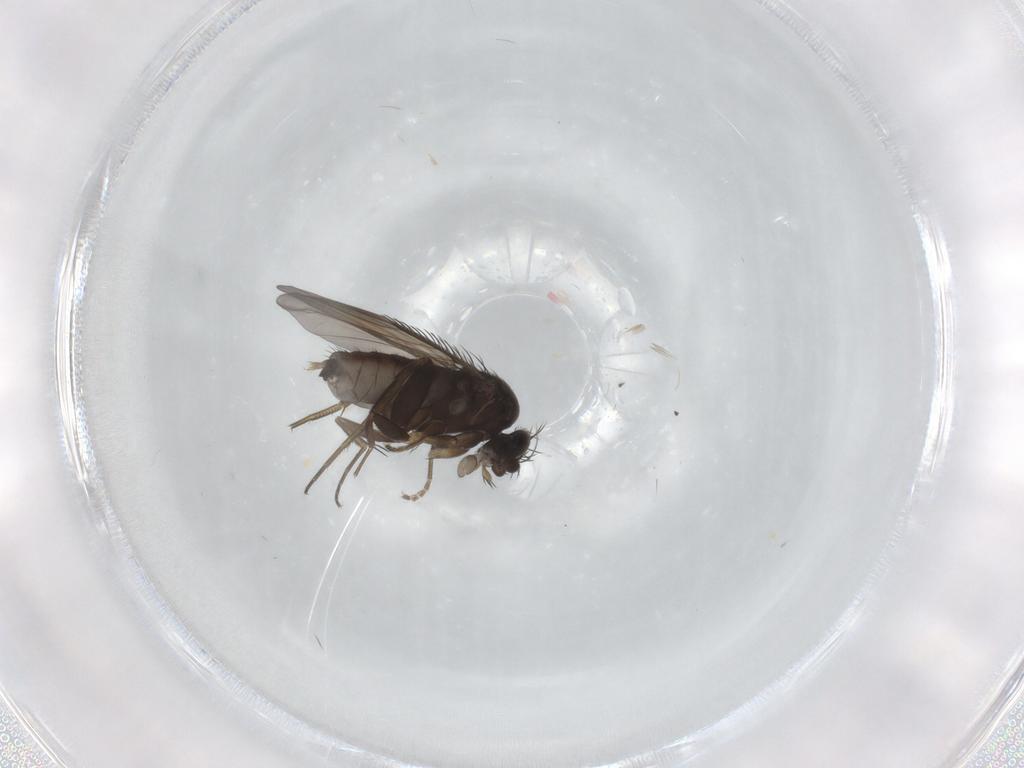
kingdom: Animalia
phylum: Arthropoda
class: Insecta
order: Diptera
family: Phoridae
